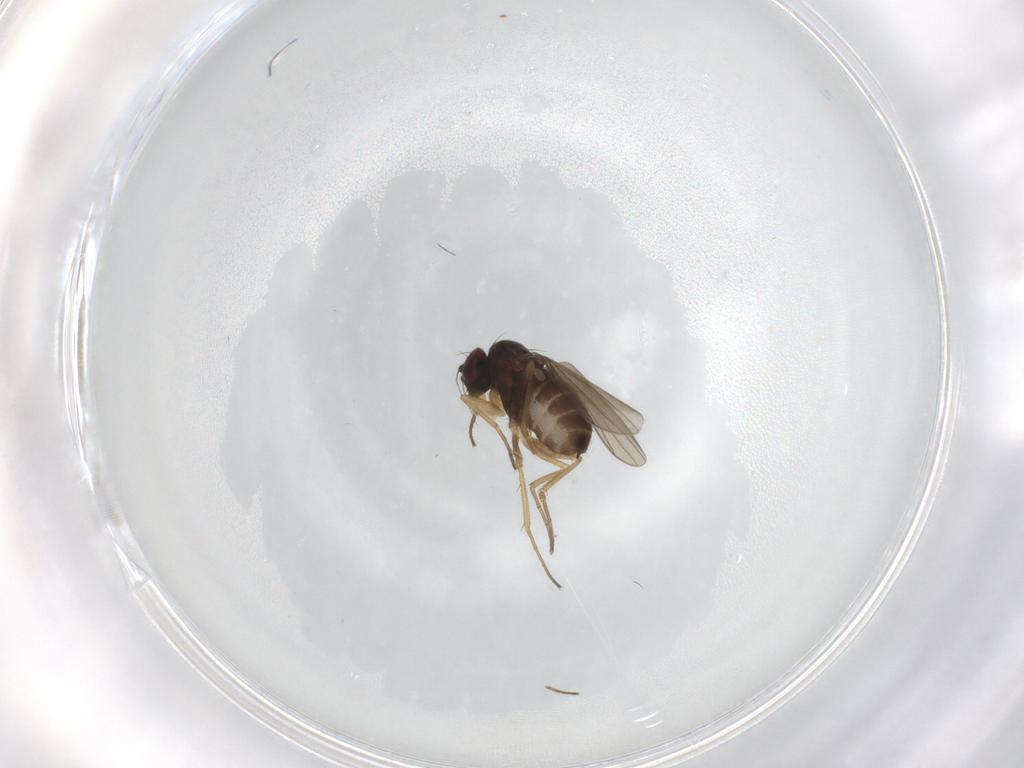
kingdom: Animalia
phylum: Arthropoda
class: Insecta
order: Diptera
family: Dolichopodidae
